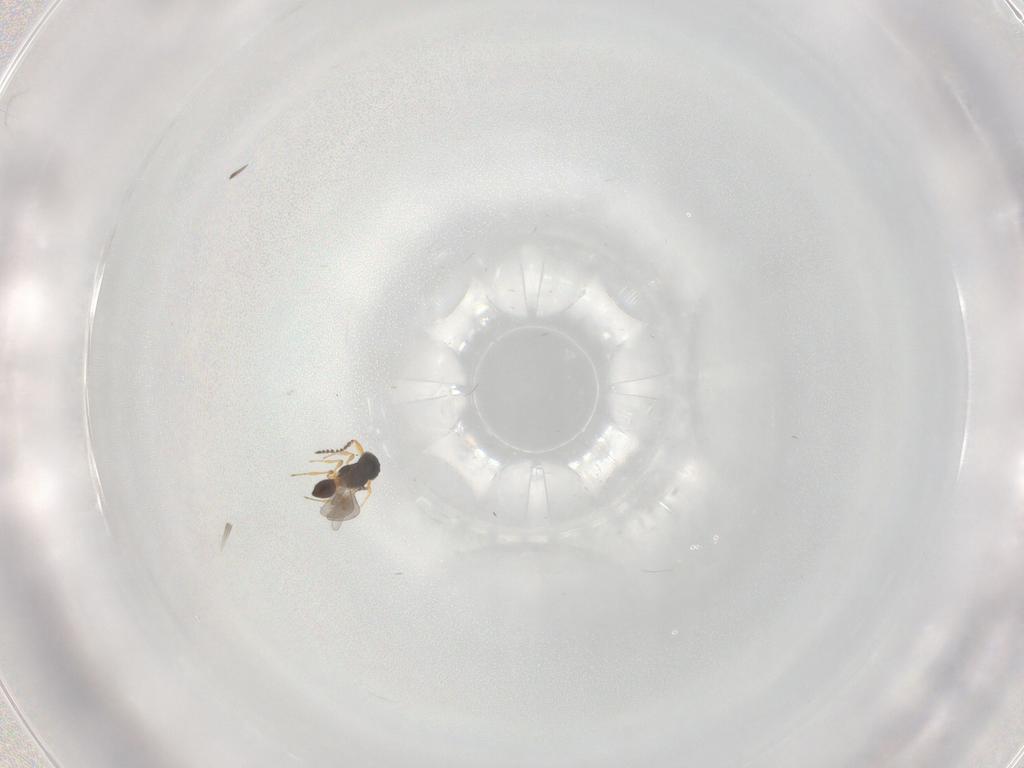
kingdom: Animalia
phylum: Arthropoda
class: Insecta
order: Hymenoptera
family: Platygastridae
